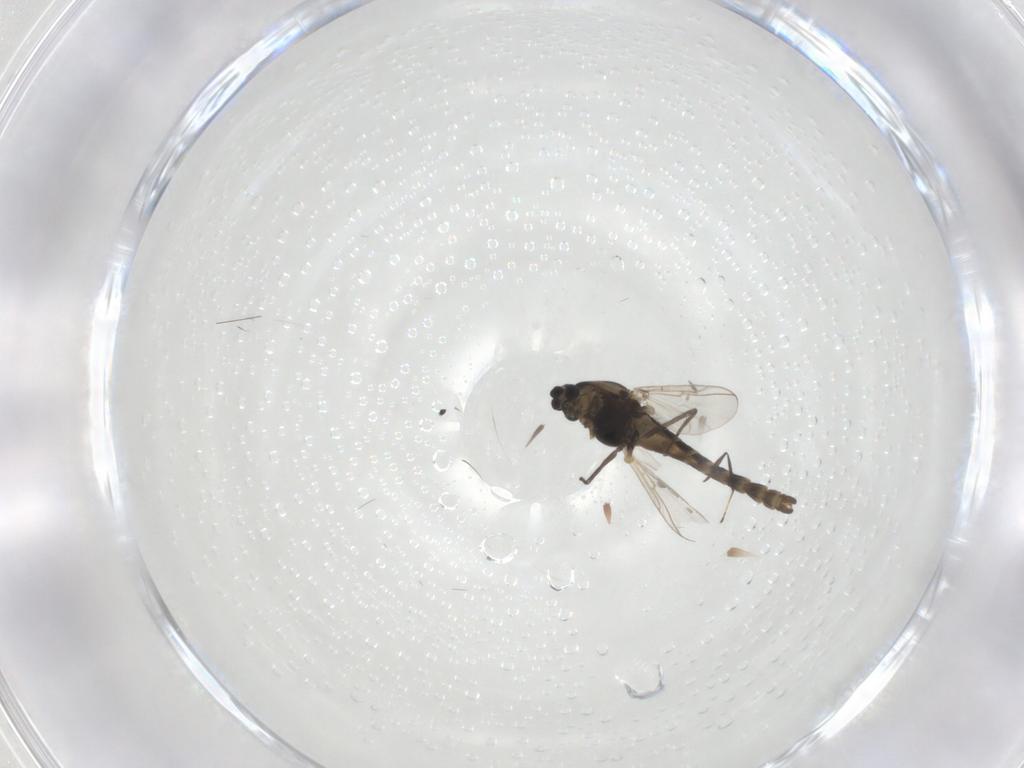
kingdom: Animalia
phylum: Arthropoda
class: Insecta
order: Diptera
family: Chironomidae
